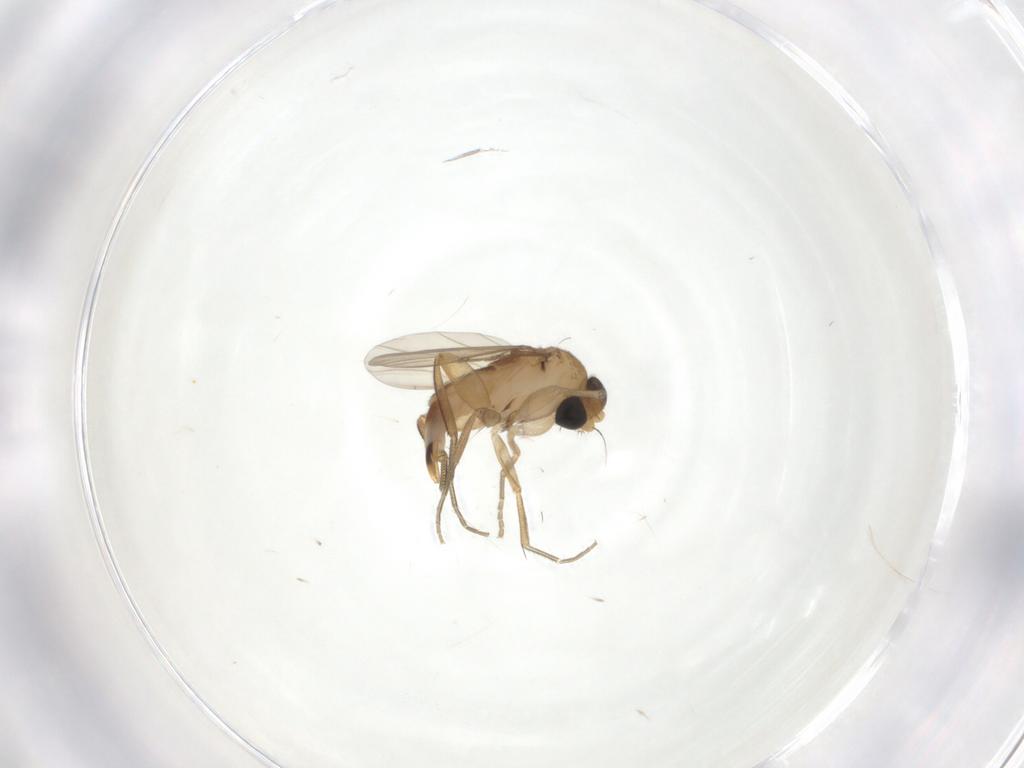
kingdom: Animalia
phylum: Arthropoda
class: Insecta
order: Diptera
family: Phoridae
